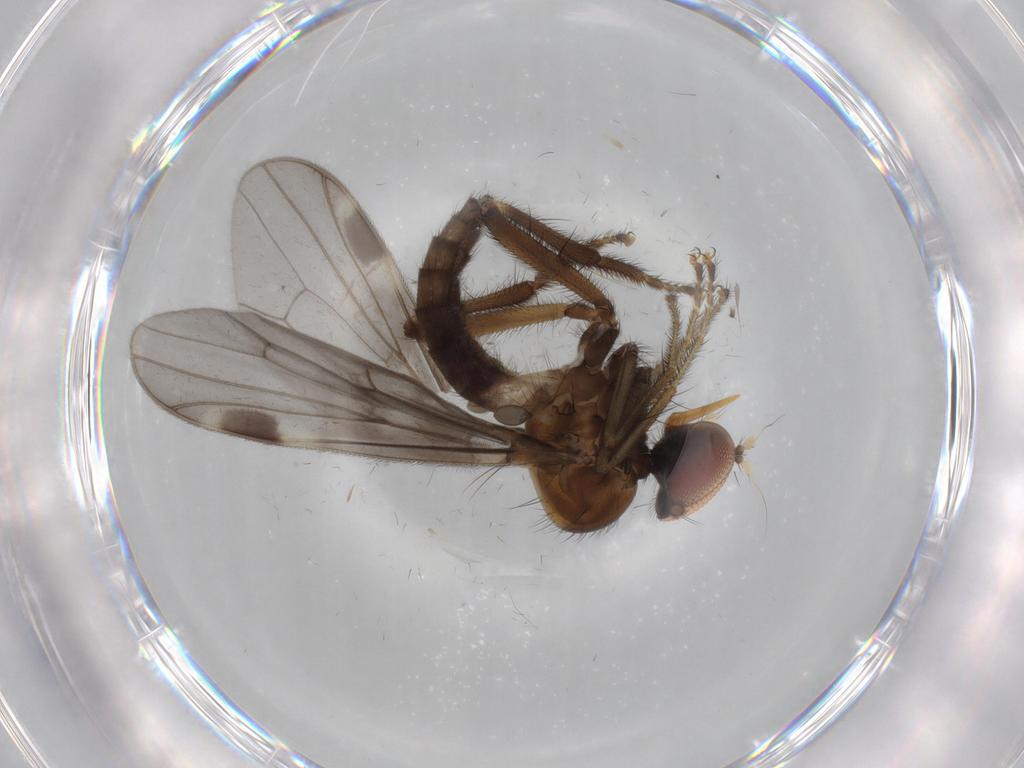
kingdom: Animalia
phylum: Arthropoda
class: Insecta
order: Diptera
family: Hybotidae
